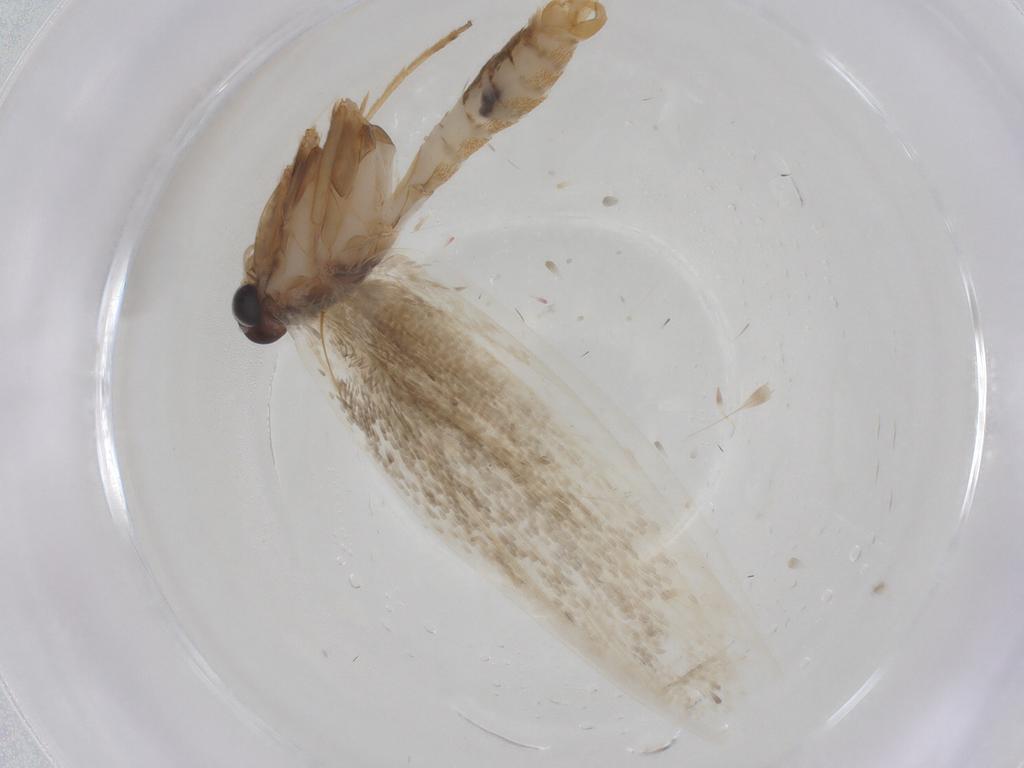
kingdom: Animalia
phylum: Arthropoda
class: Insecta
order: Lepidoptera
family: Erebidae
